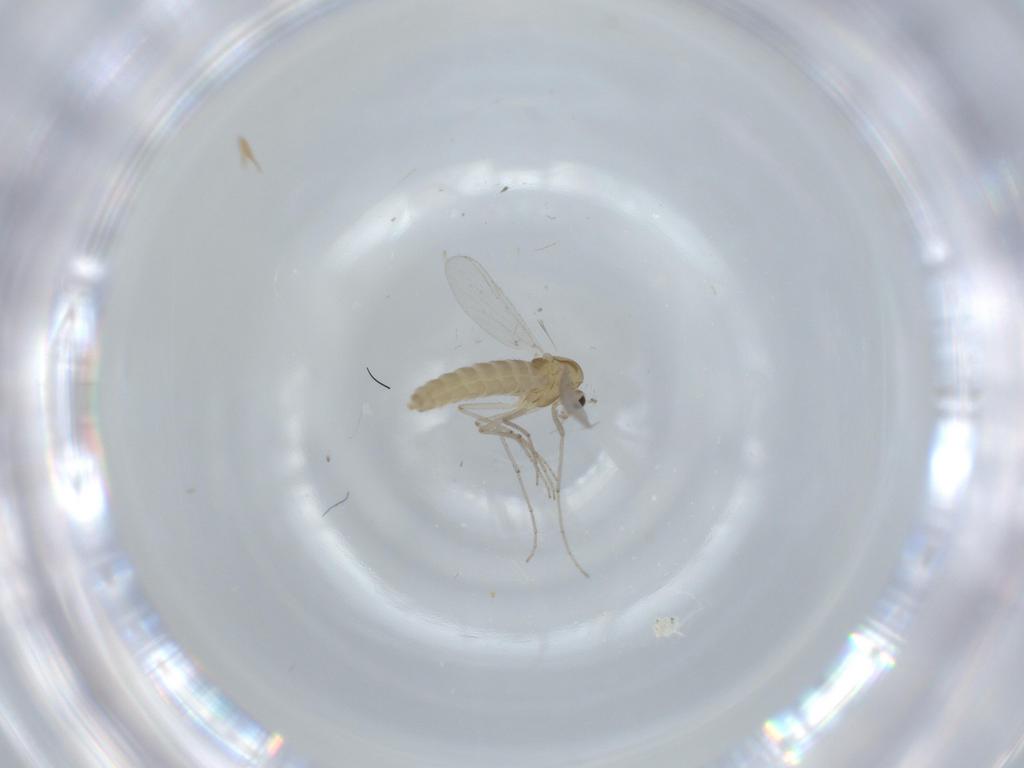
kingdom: Animalia
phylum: Arthropoda
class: Insecta
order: Diptera
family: Chironomidae
